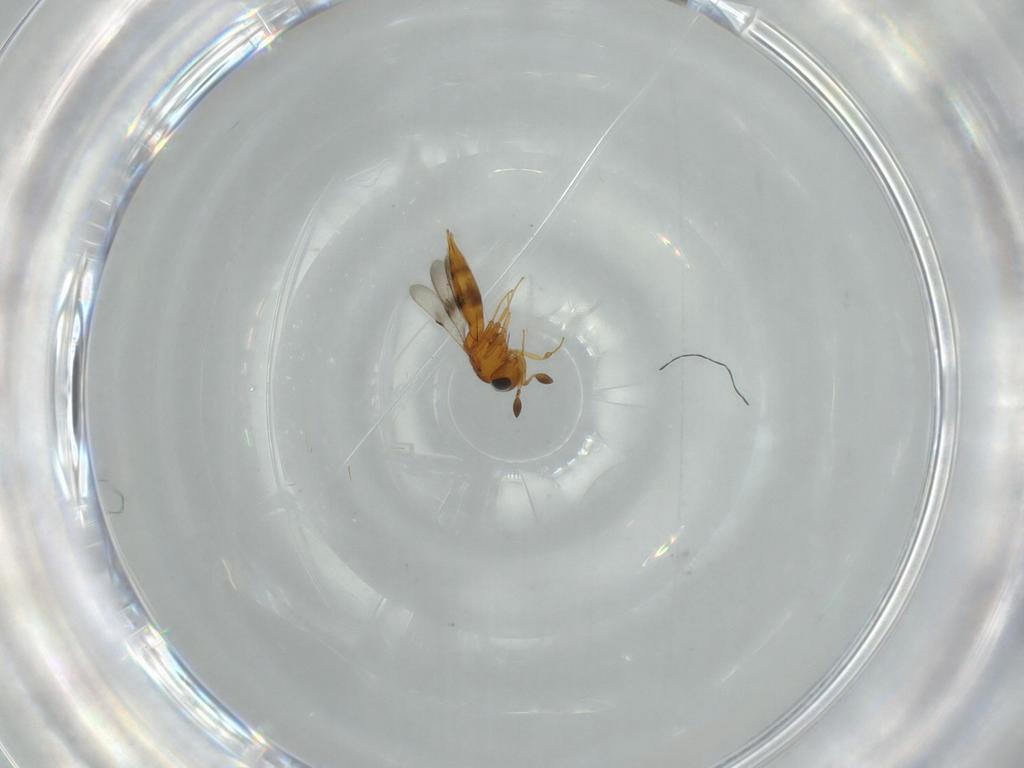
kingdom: Animalia
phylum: Arthropoda
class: Insecta
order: Hymenoptera
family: Scelionidae
